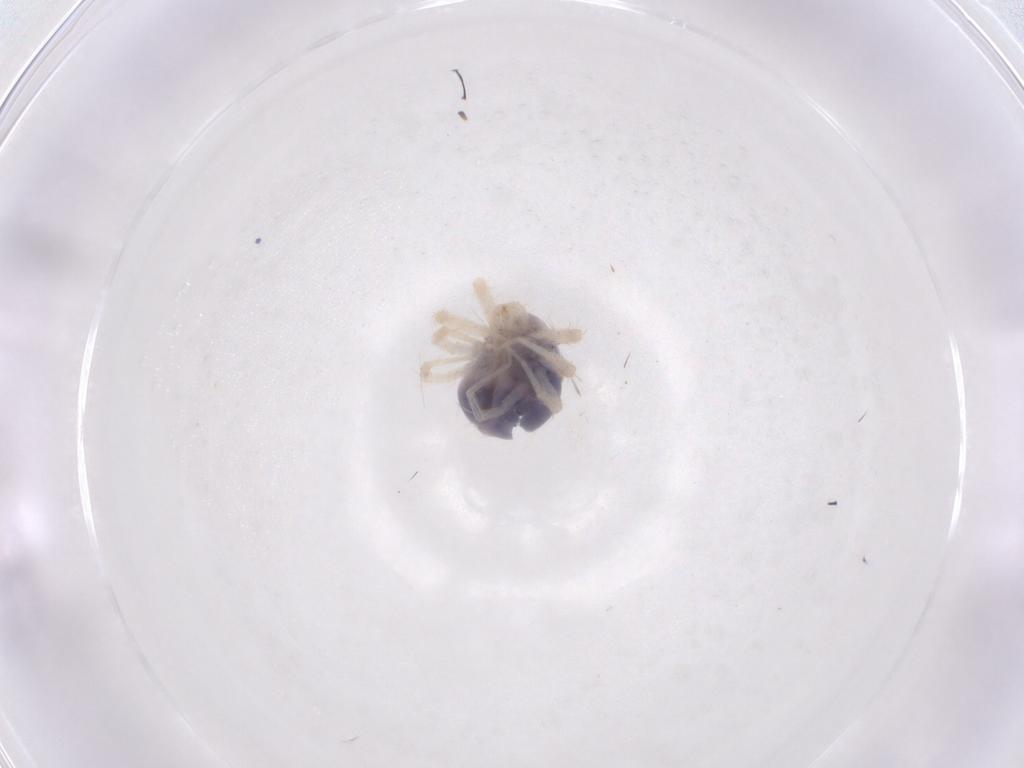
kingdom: Animalia
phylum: Arthropoda
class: Arachnida
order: Trombidiformes
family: Anystidae
